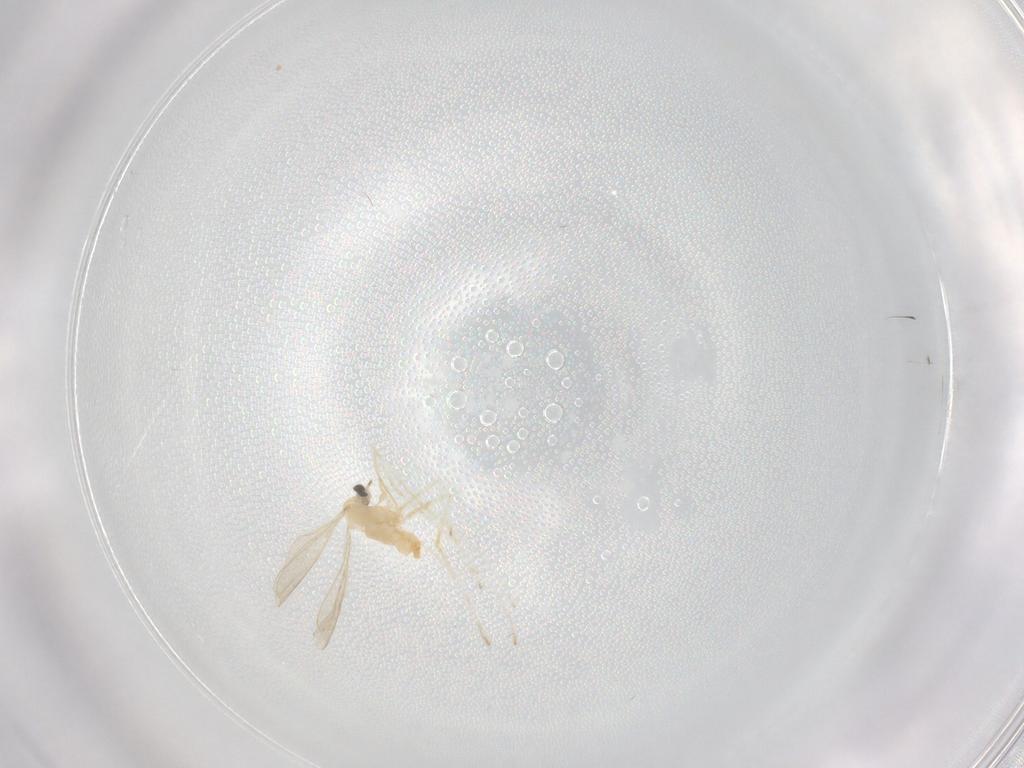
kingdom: Animalia
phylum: Arthropoda
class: Insecta
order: Diptera
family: Cecidomyiidae
